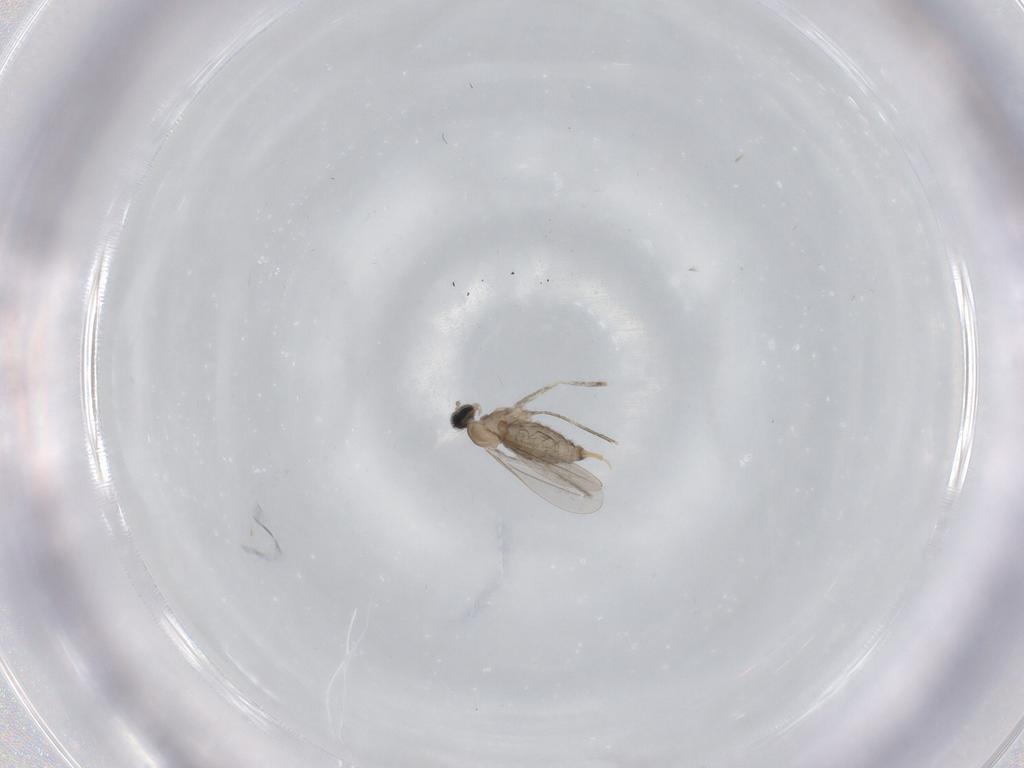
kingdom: Animalia
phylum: Arthropoda
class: Insecta
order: Diptera
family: Cecidomyiidae
